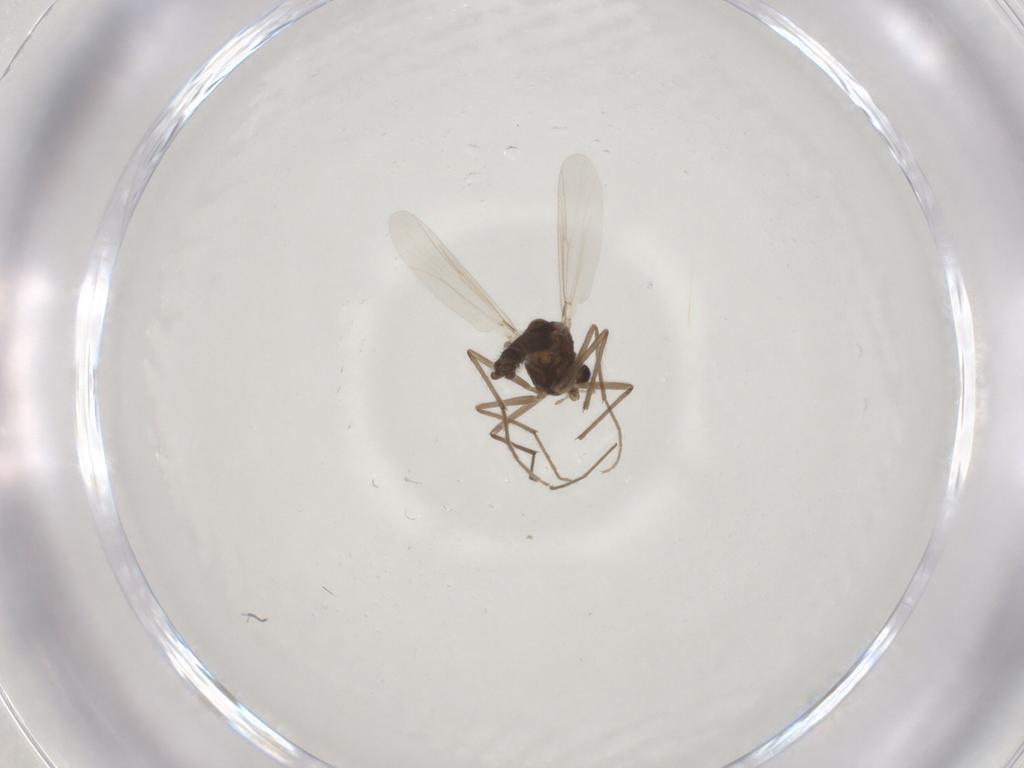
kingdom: Animalia
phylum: Arthropoda
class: Insecta
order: Diptera
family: Chironomidae
